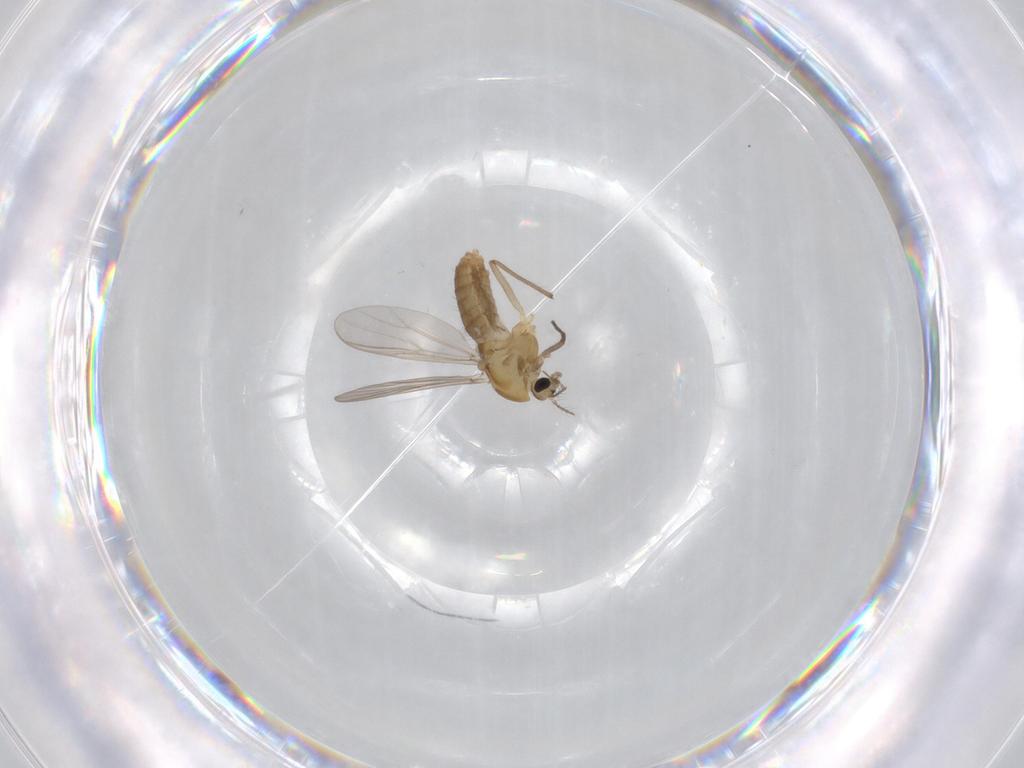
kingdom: Animalia
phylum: Arthropoda
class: Insecta
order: Diptera
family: Chironomidae
